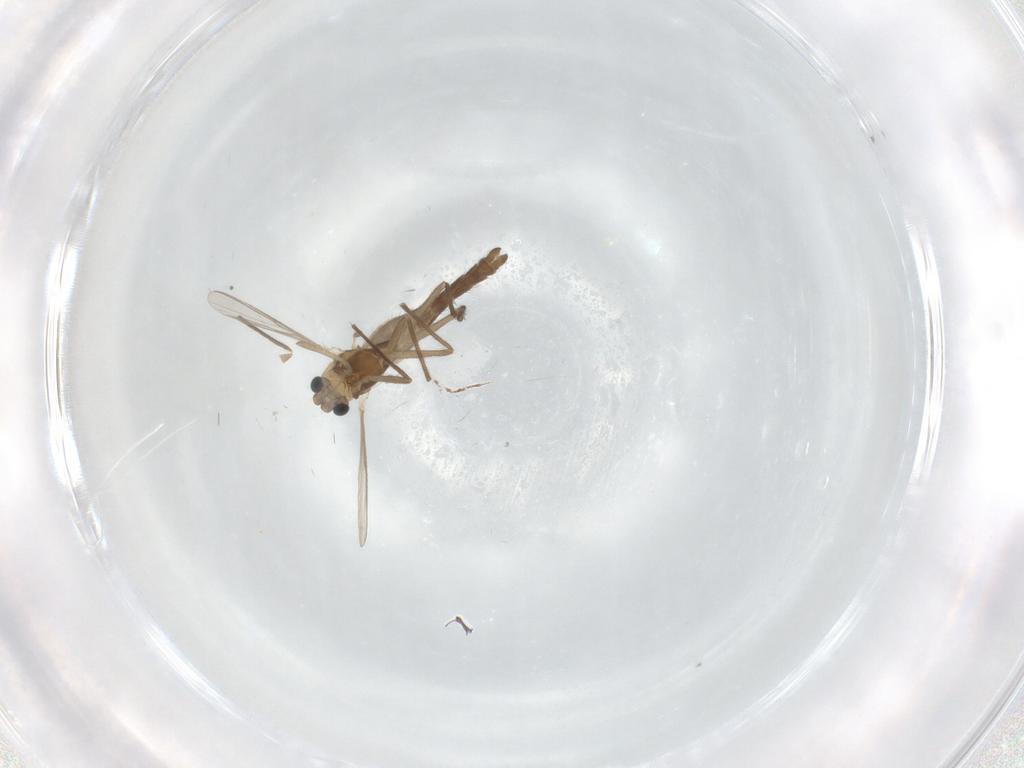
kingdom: Animalia
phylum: Arthropoda
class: Insecta
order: Diptera
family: Chironomidae
